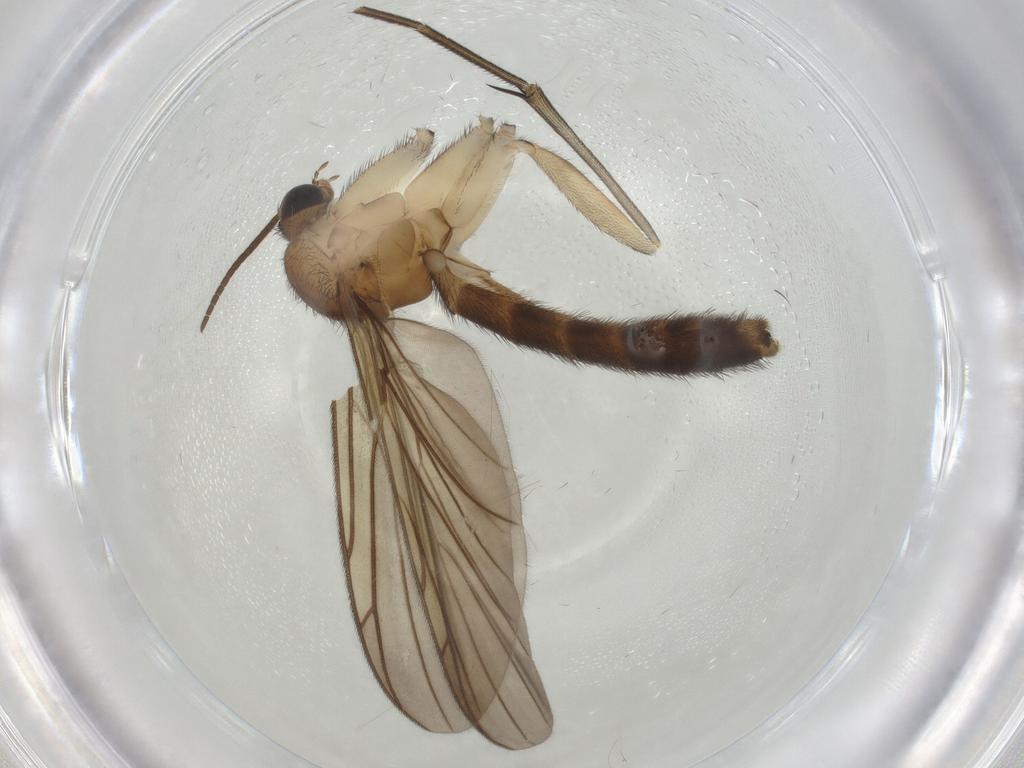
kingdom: Animalia
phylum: Arthropoda
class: Insecta
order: Diptera
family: Keroplatidae
